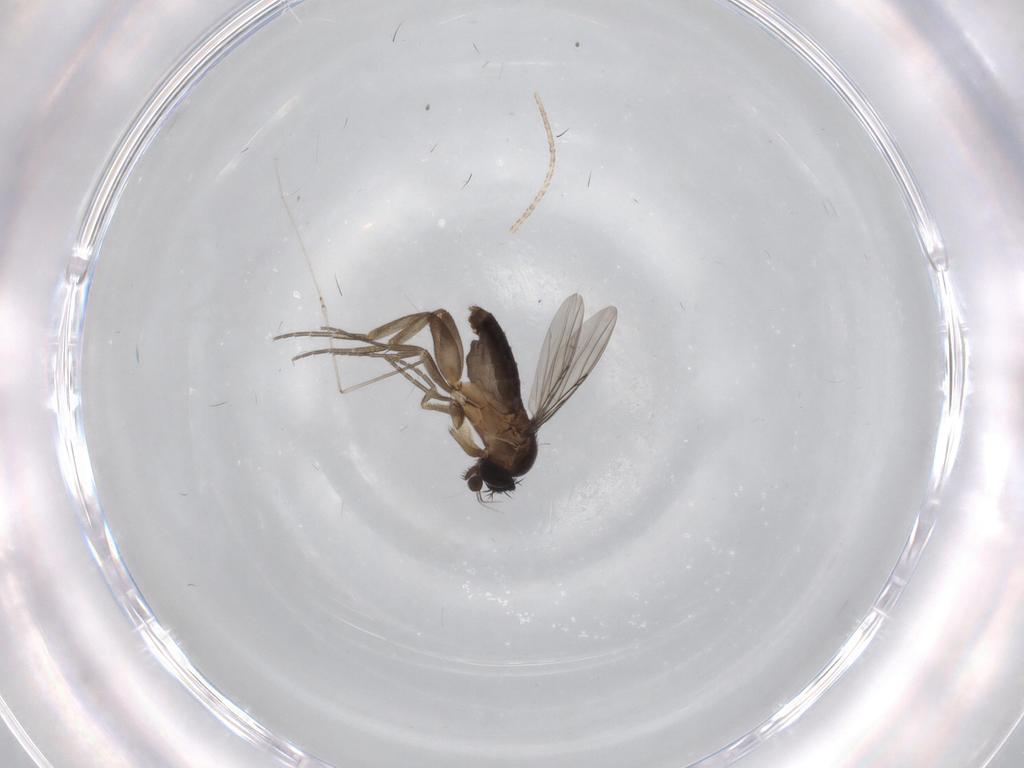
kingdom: Animalia
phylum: Arthropoda
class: Insecta
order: Diptera
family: Phoridae
